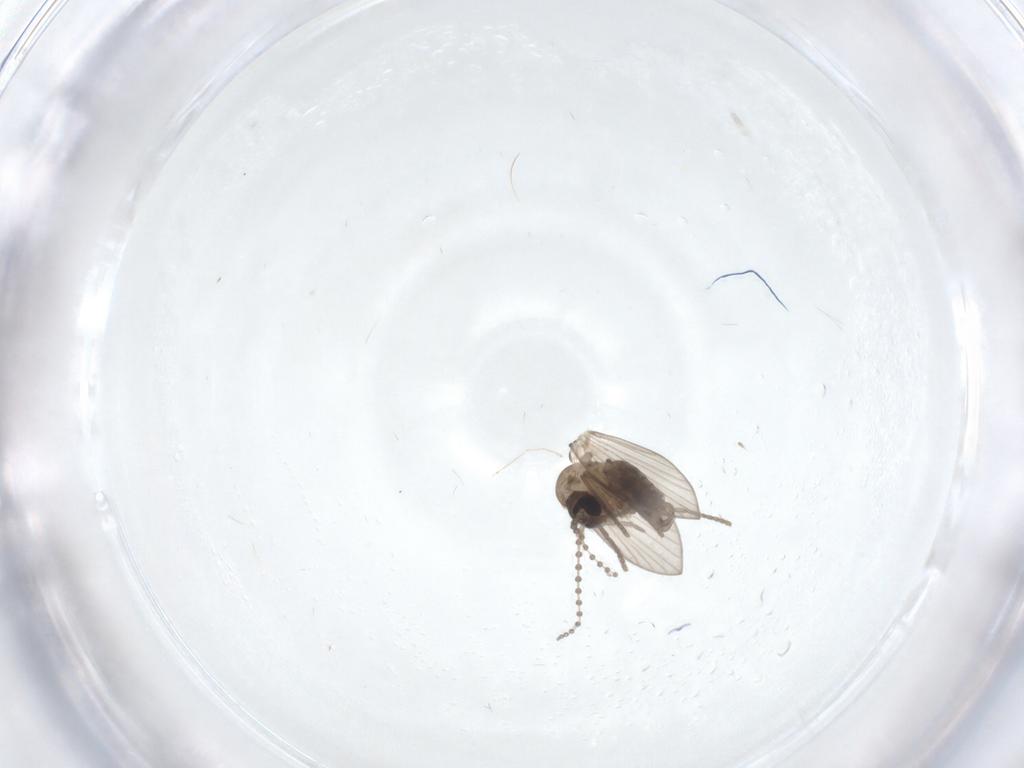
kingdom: Animalia
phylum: Arthropoda
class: Insecta
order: Diptera
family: Psychodidae
